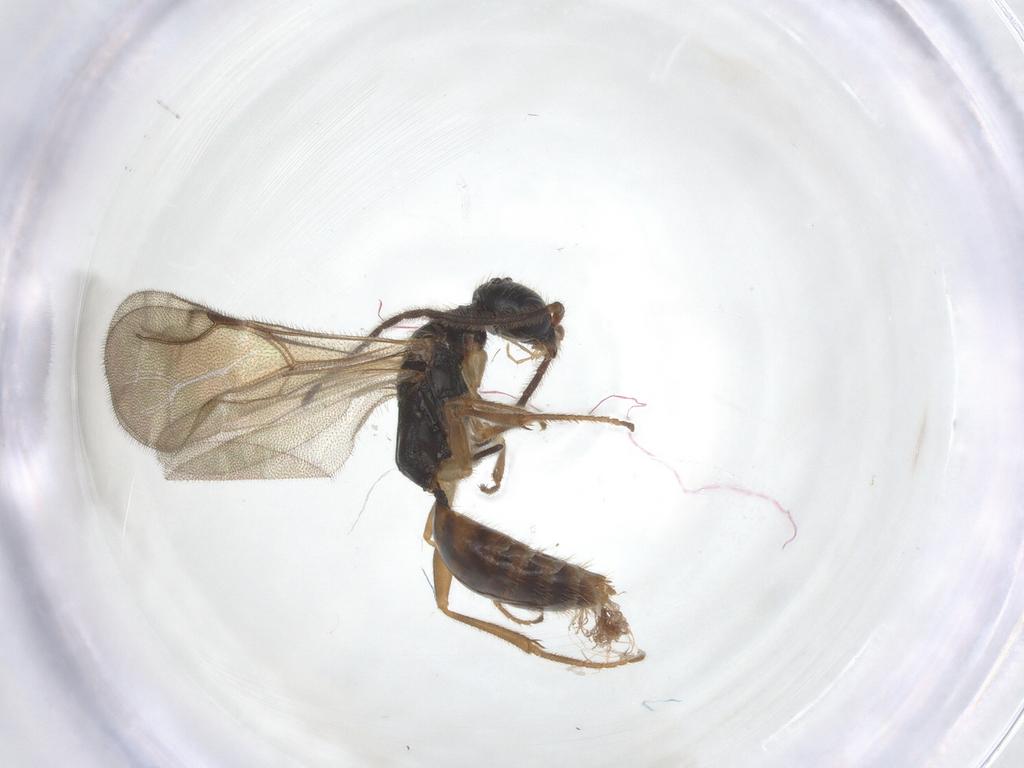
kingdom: Animalia
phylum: Arthropoda
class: Insecta
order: Hymenoptera
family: Bethylidae
